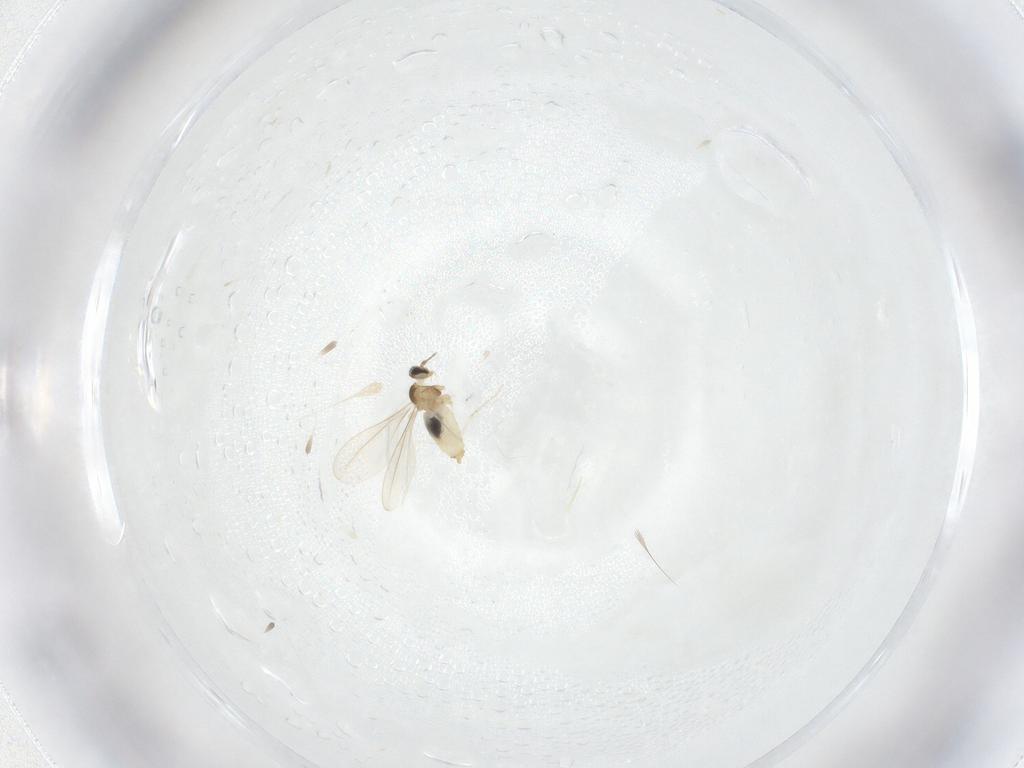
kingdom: Animalia
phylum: Arthropoda
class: Insecta
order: Diptera
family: Cecidomyiidae
